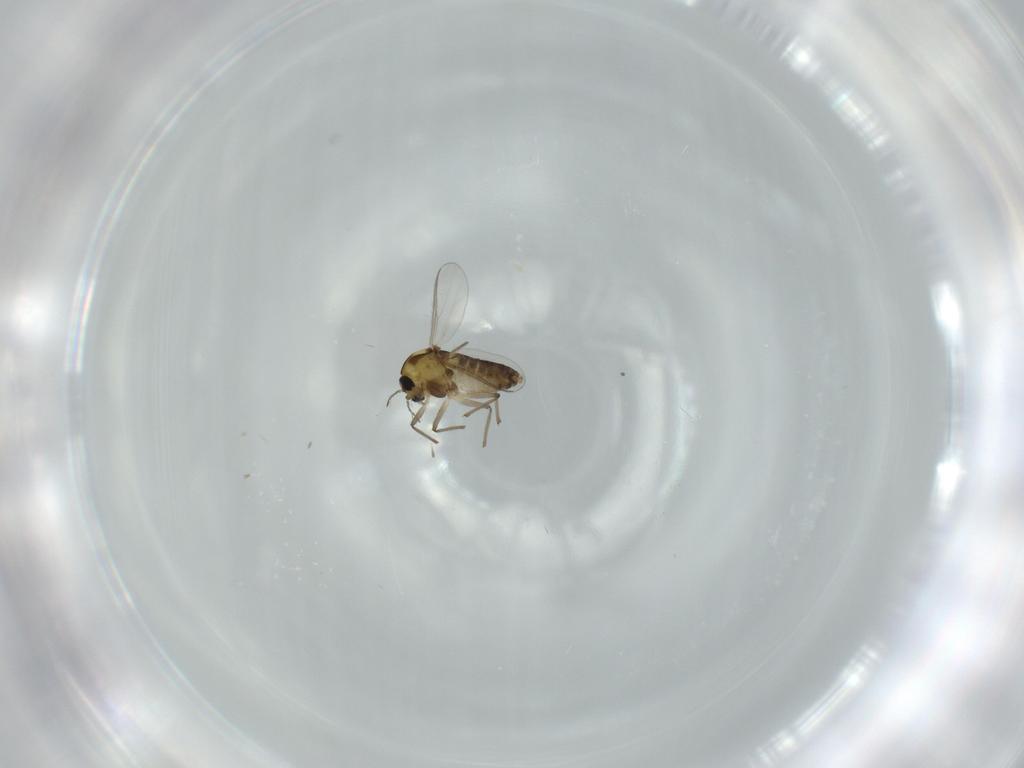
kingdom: Animalia
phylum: Arthropoda
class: Insecta
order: Diptera
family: Chironomidae
